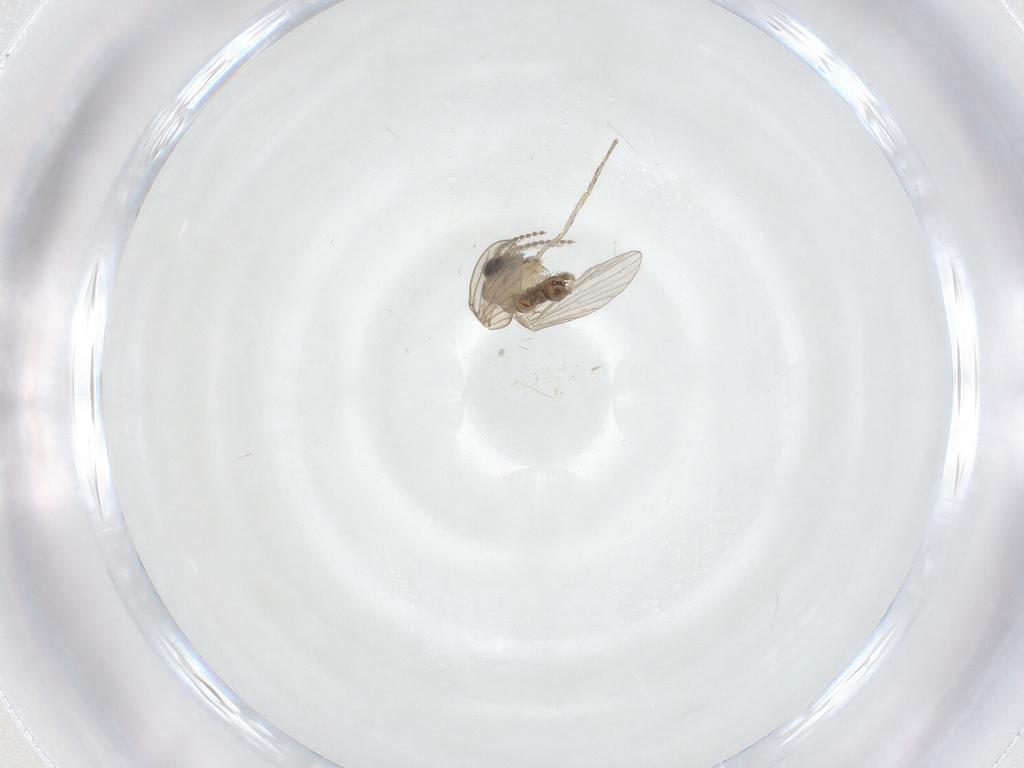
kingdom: Animalia
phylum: Arthropoda
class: Insecta
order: Diptera
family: Psychodidae
